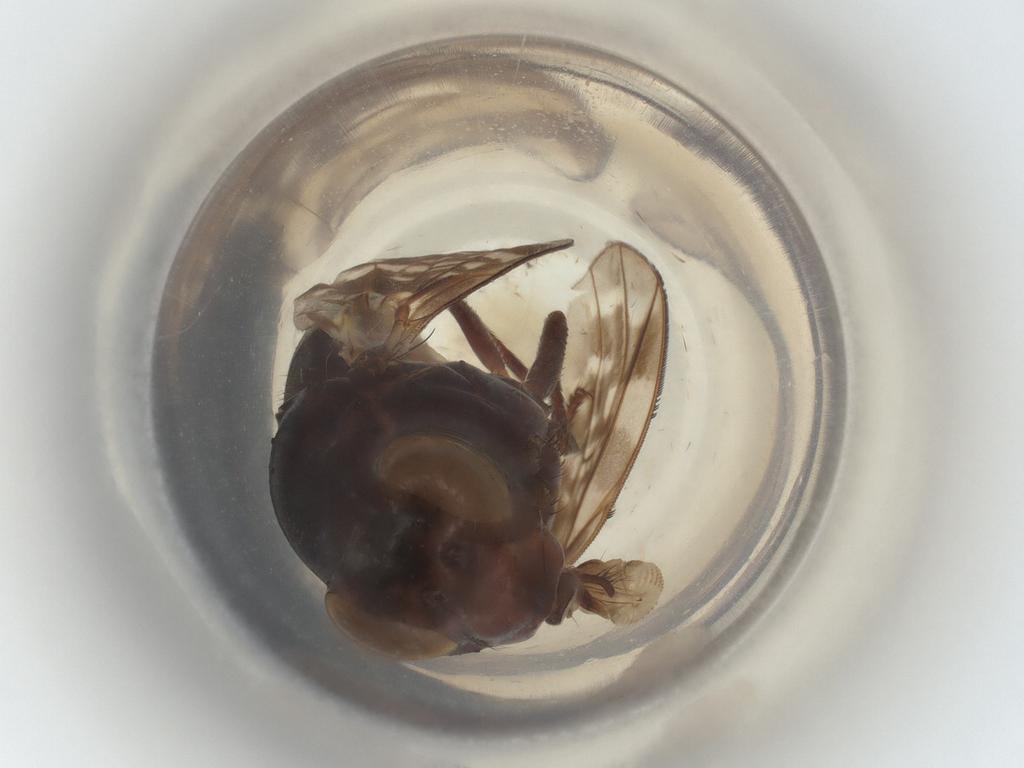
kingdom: Animalia
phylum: Arthropoda
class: Insecta
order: Diptera
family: Lauxaniidae
